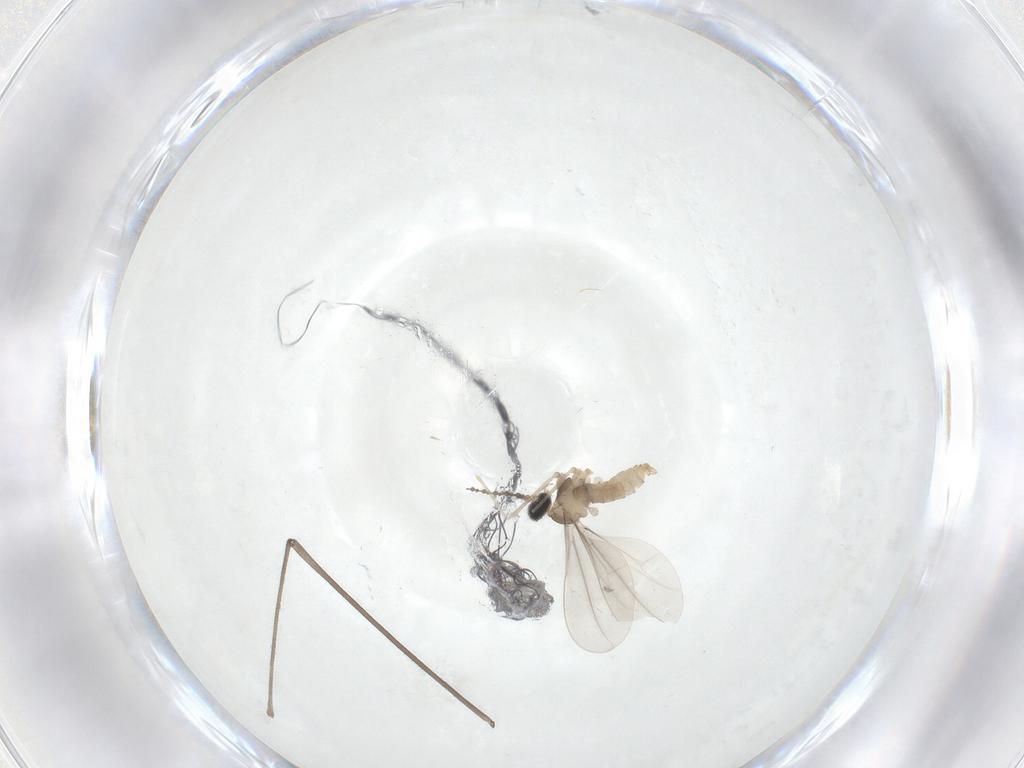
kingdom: Animalia
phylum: Arthropoda
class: Insecta
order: Diptera
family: Limoniidae
